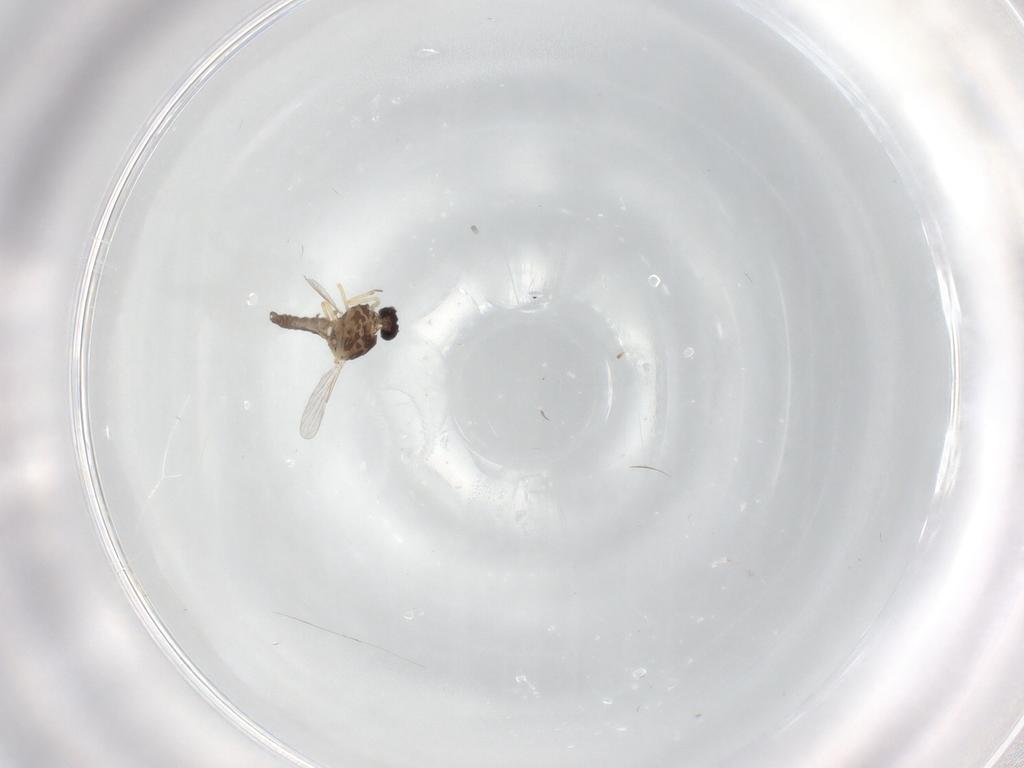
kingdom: Animalia
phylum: Arthropoda
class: Insecta
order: Diptera
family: Ceratopogonidae
